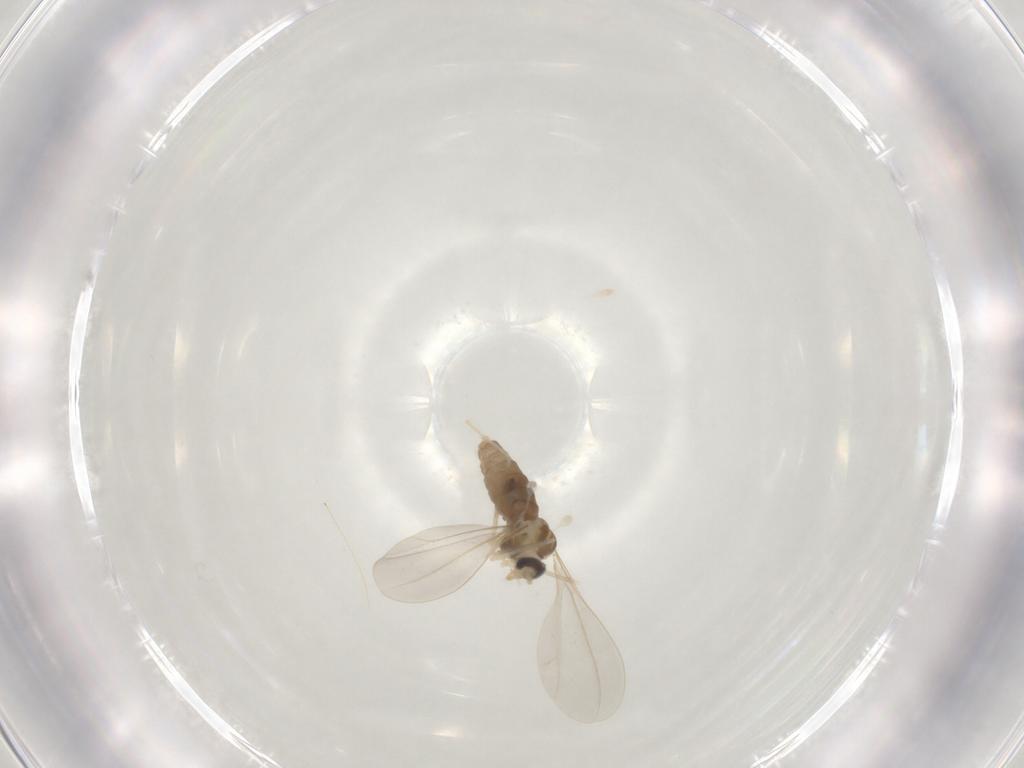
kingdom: Animalia
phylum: Arthropoda
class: Insecta
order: Diptera
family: Cecidomyiidae
